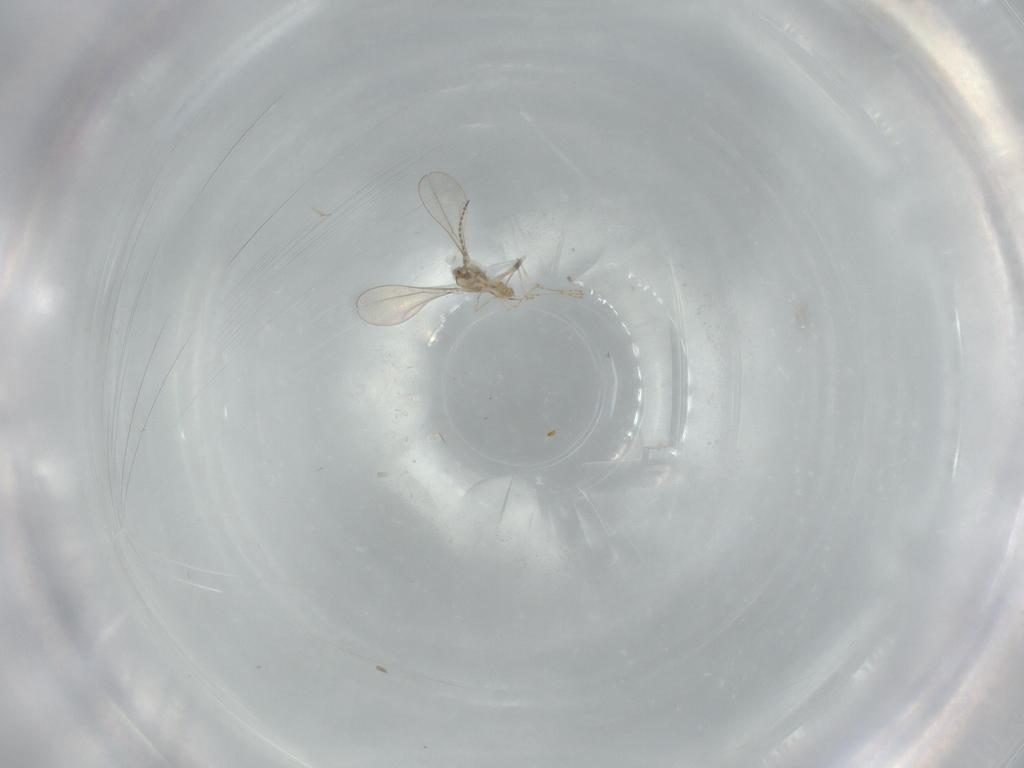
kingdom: Animalia
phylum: Arthropoda
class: Insecta
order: Diptera
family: Cecidomyiidae
